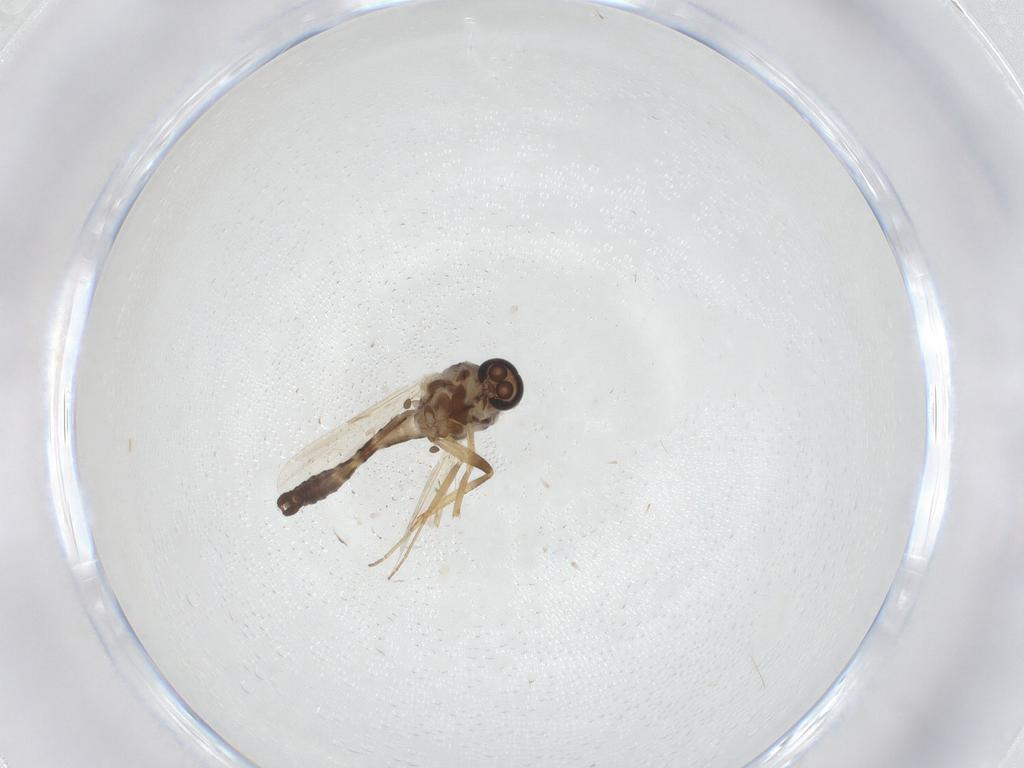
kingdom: Animalia
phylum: Arthropoda
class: Insecta
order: Diptera
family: Ceratopogonidae
